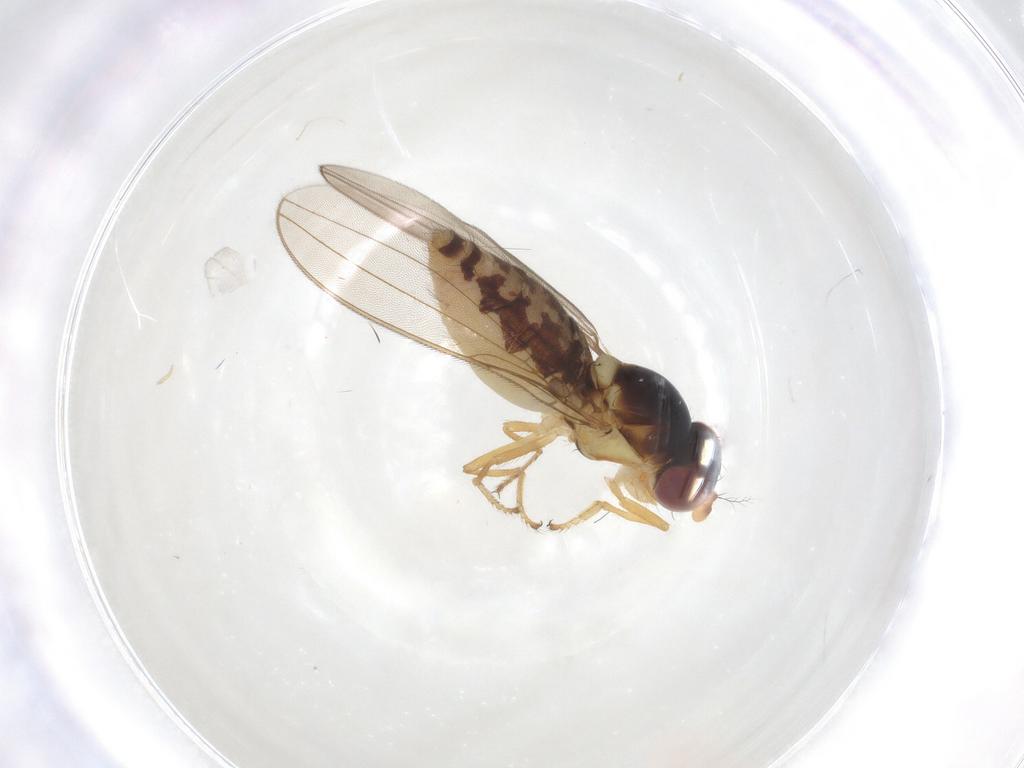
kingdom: Animalia
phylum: Arthropoda
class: Insecta
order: Diptera
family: Asteiidae
